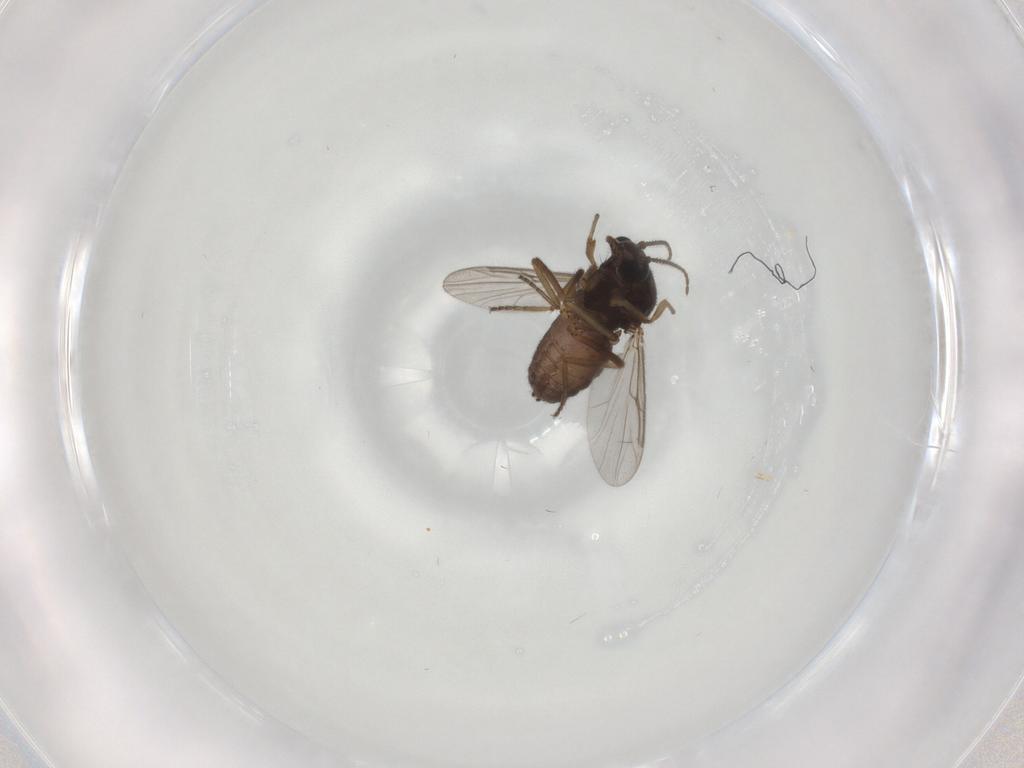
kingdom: Animalia
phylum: Arthropoda
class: Insecta
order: Diptera
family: Ceratopogonidae
